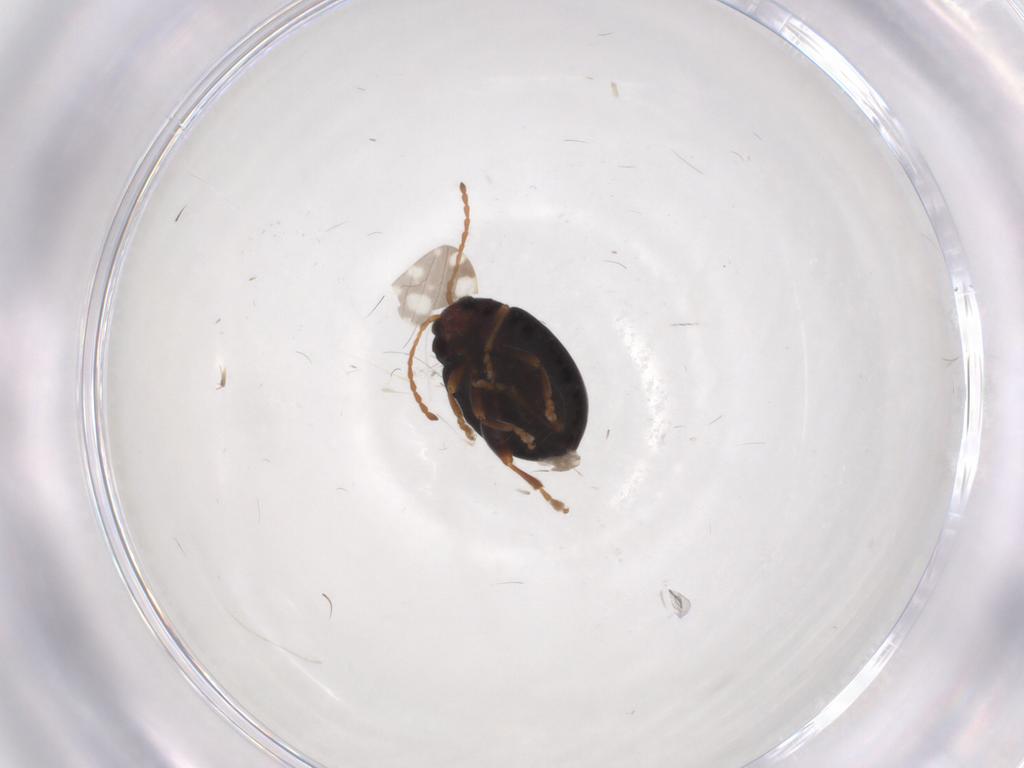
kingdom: Animalia
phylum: Arthropoda
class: Insecta
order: Coleoptera
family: Chrysomelidae
